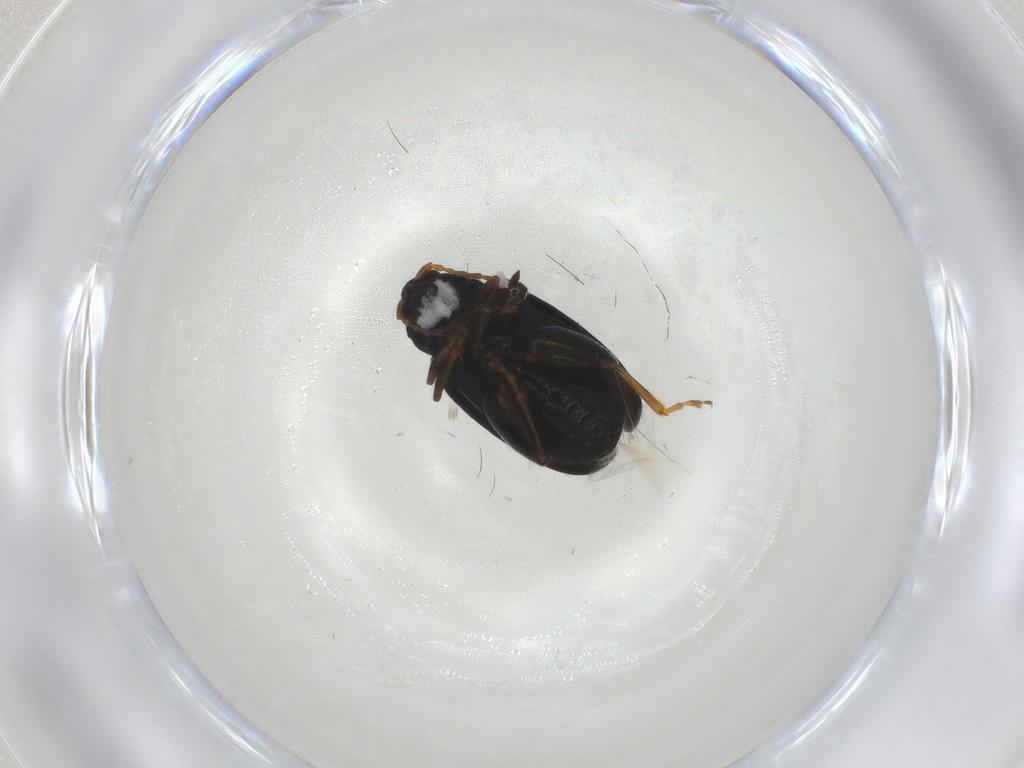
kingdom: Animalia
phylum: Arthropoda
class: Insecta
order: Coleoptera
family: Chrysomelidae
